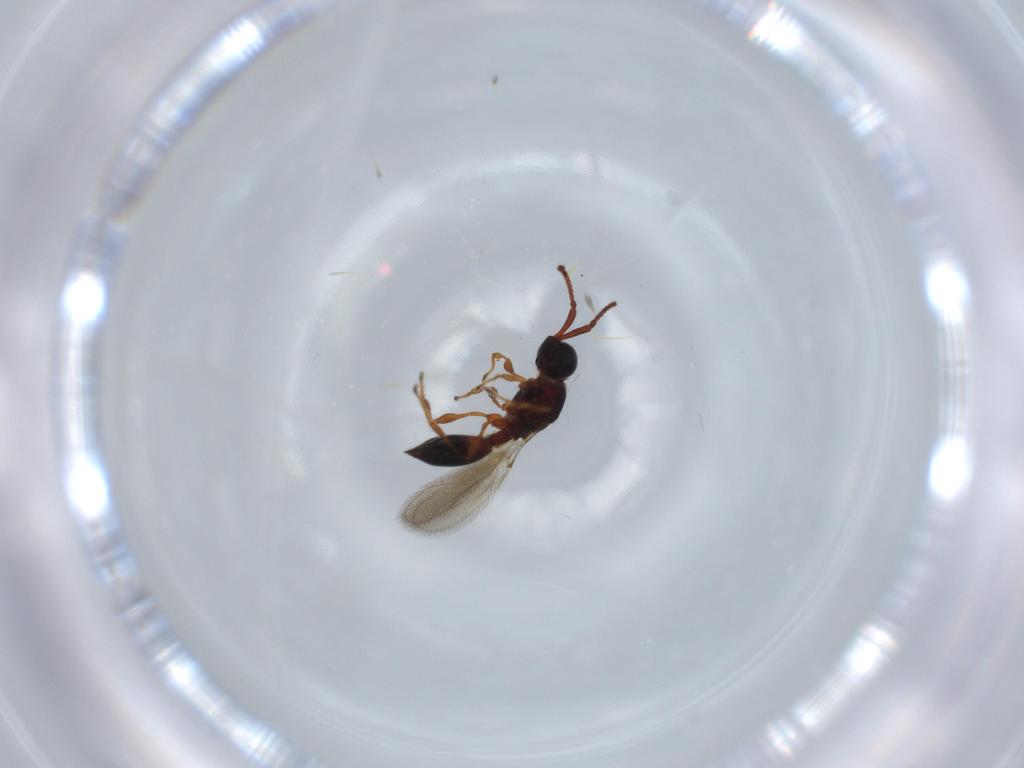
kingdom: Animalia
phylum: Arthropoda
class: Insecta
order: Hymenoptera
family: Diapriidae
